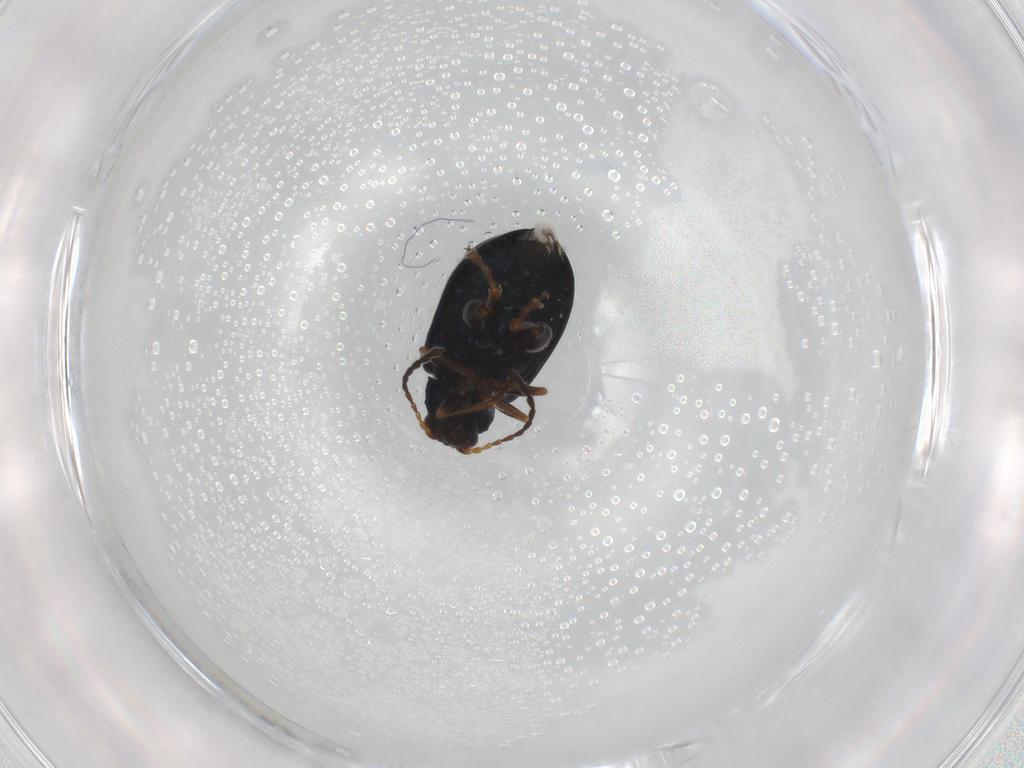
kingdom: Animalia
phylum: Arthropoda
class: Insecta
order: Coleoptera
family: Chrysomelidae
